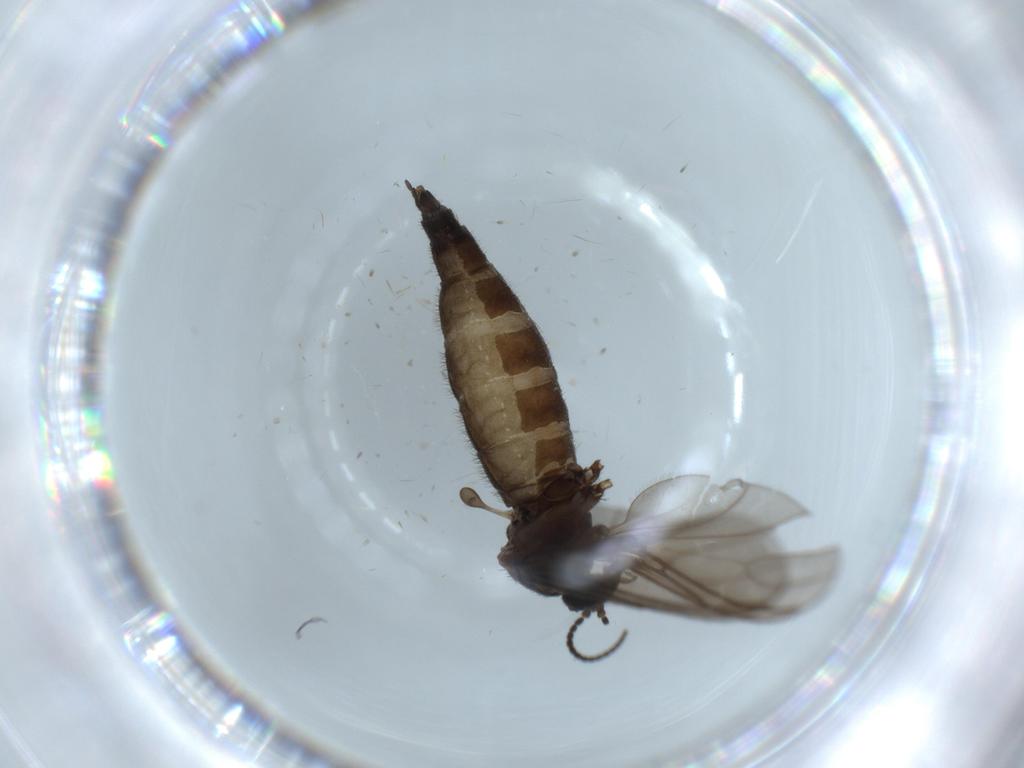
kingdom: Animalia
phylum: Arthropoda
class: Insecta
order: Diptera
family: Sciaridae
